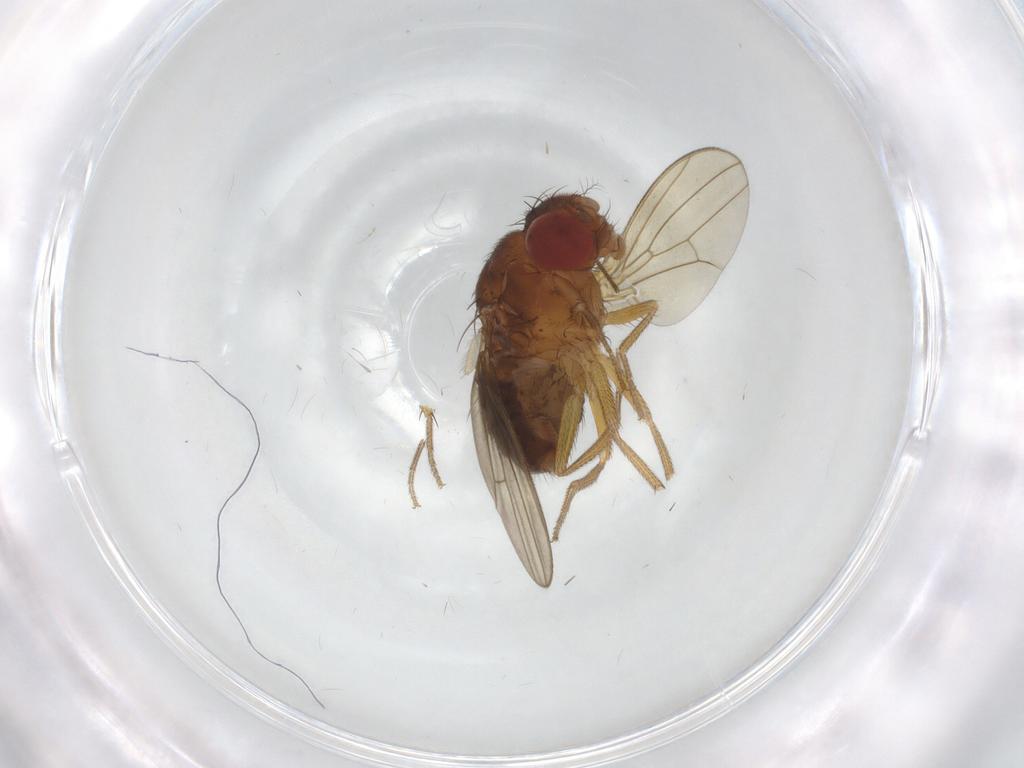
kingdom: Animalia
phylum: Arthropoda
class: Insecta
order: Diptera
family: Drosophilidae
